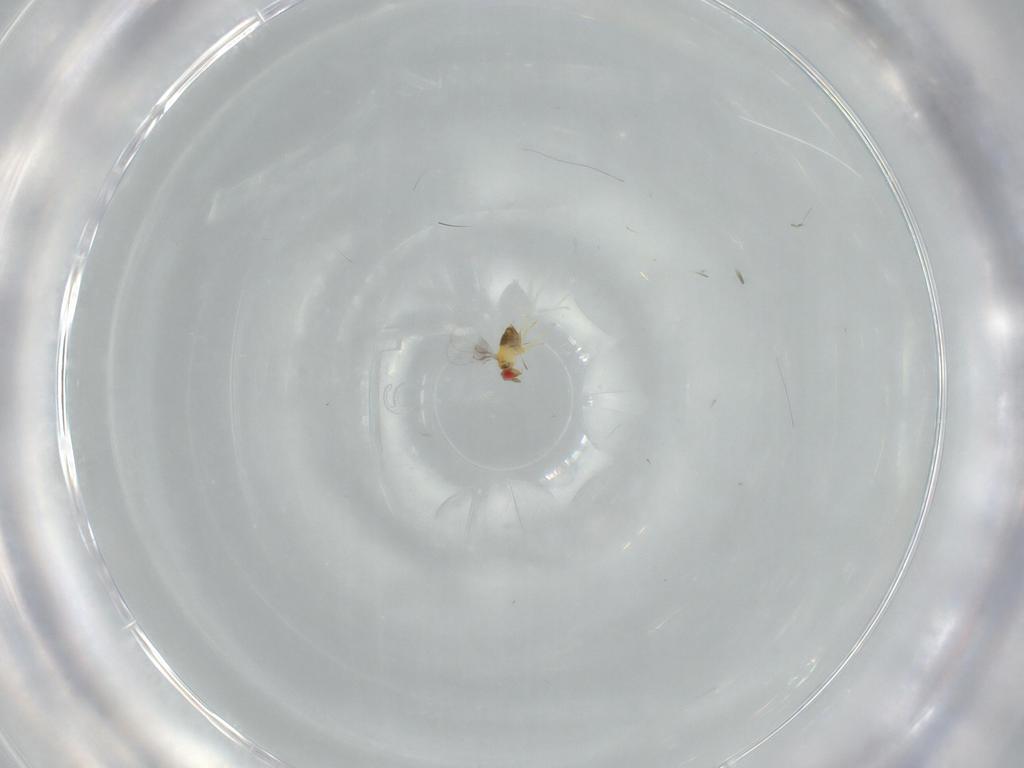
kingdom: Animalia
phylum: Arthropoda
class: Insecta
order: Hymenoptera
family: Trichogrammatidae
